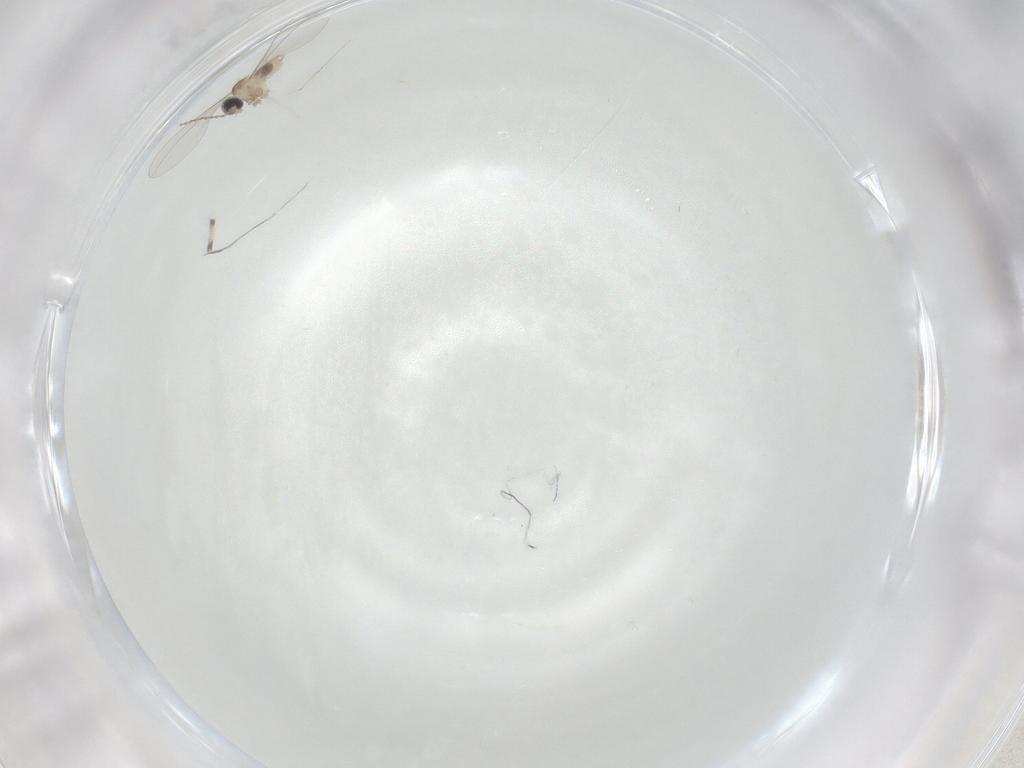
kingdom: Animalia
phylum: Arthropoda
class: Insecta
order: Diptera
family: Cecidomyiidae
